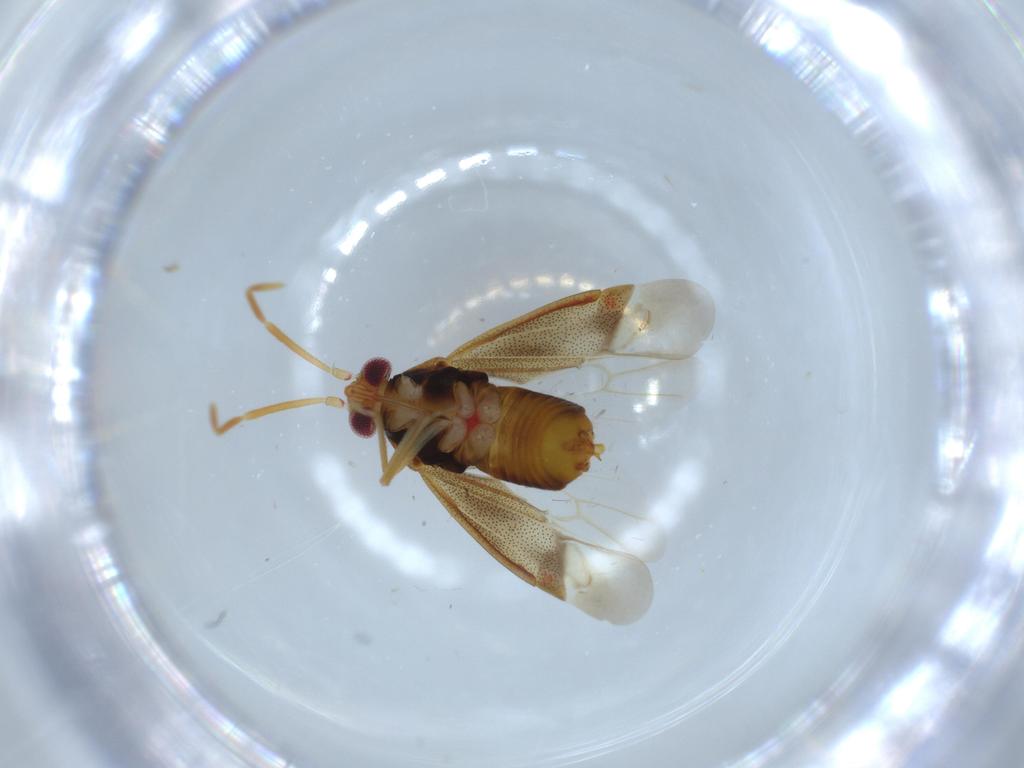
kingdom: Animalia
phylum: Arthropoda
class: Insecta
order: Hemiptera
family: Miridae
